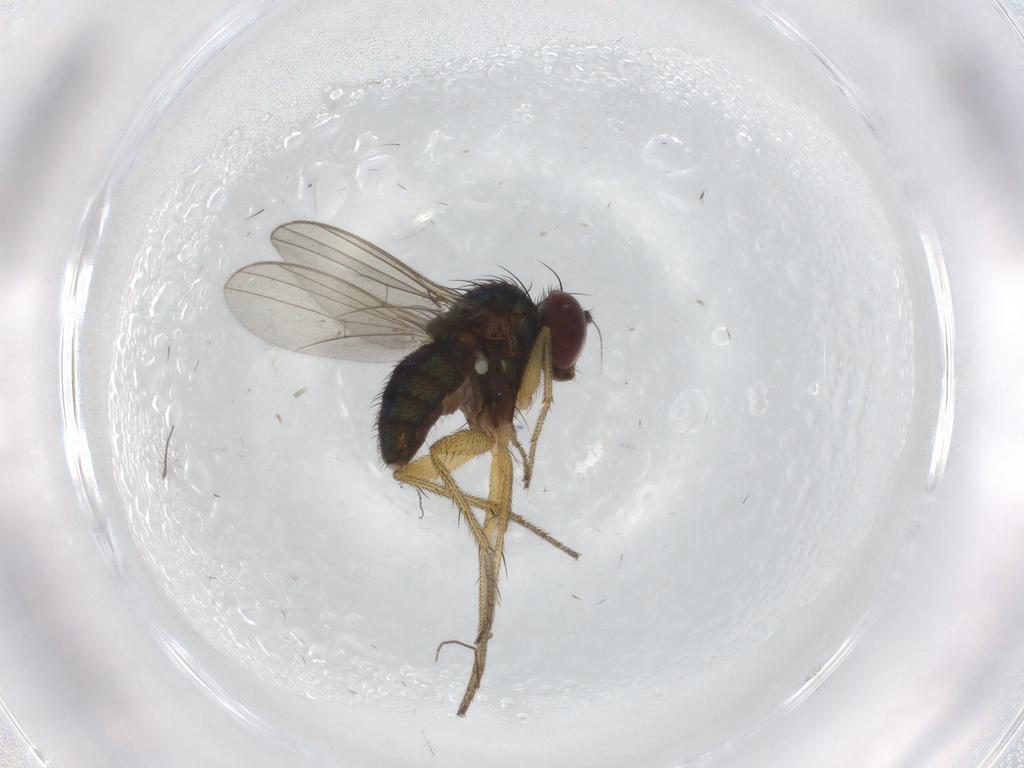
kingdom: Animalia
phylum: Arthropoda
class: Insecta
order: Diptera
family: Chironomidae
